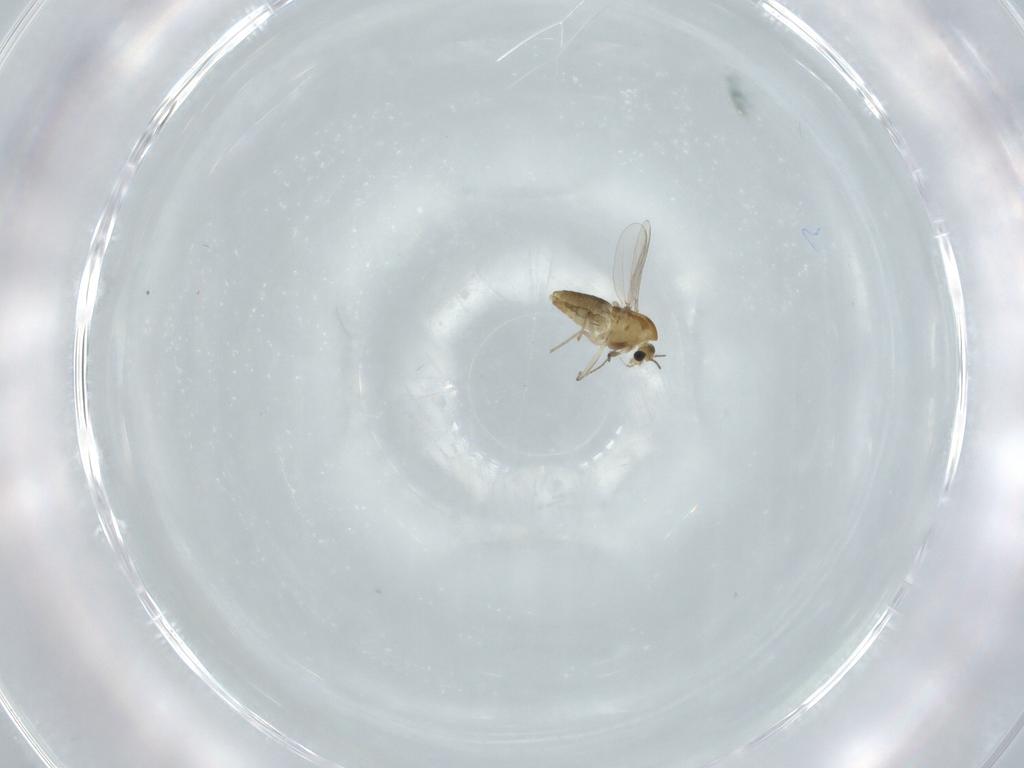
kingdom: Animalia
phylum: Arthropoda
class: Insecta
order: Diptera
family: Chironomidae
